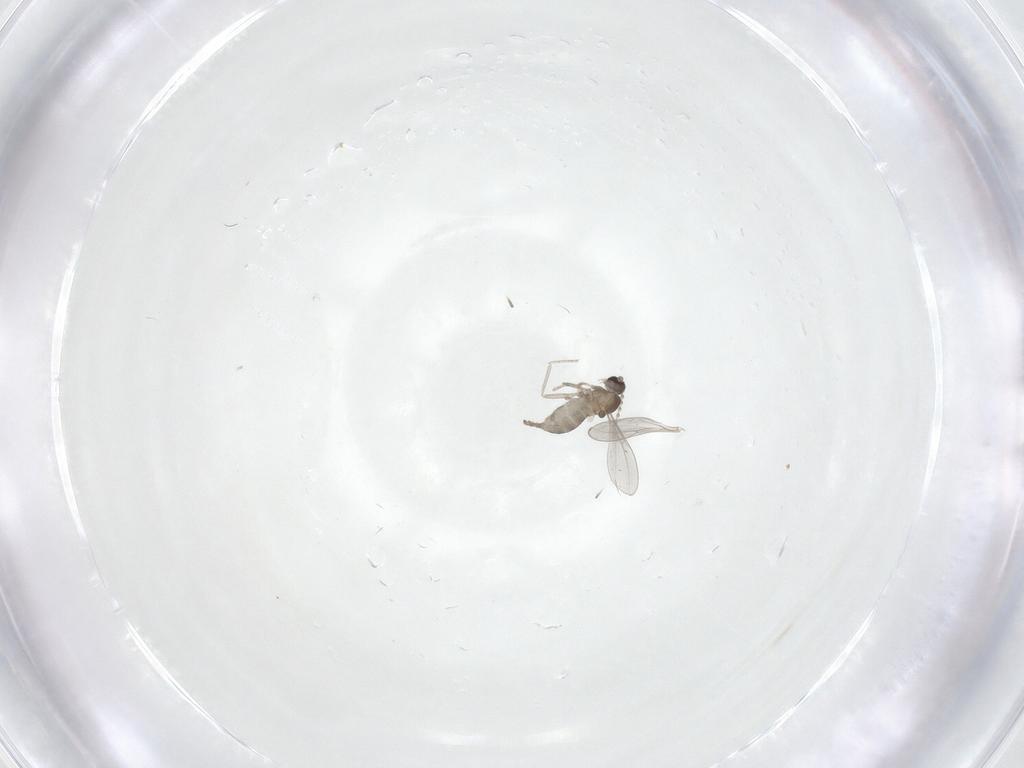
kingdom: Animalia
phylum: Arthropoda
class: Insecta
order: Diptera
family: Cecidomyiidae
